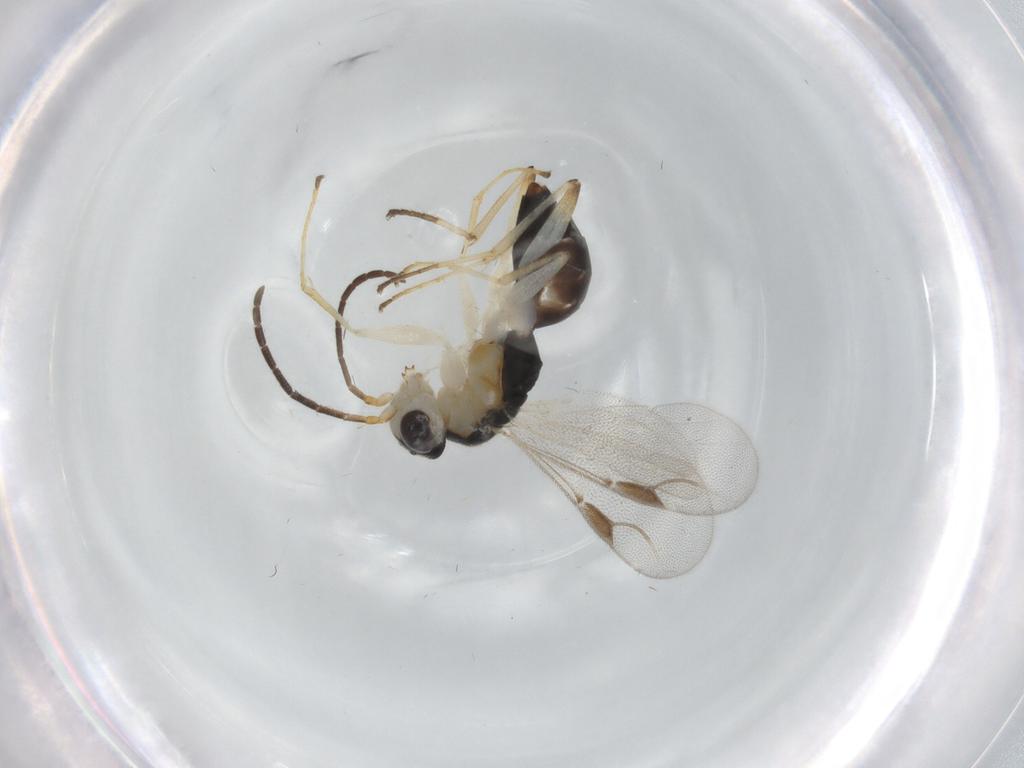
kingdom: Animalia
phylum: Arthropoda
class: Insecta
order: Hymenoptera
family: Dryinidae
